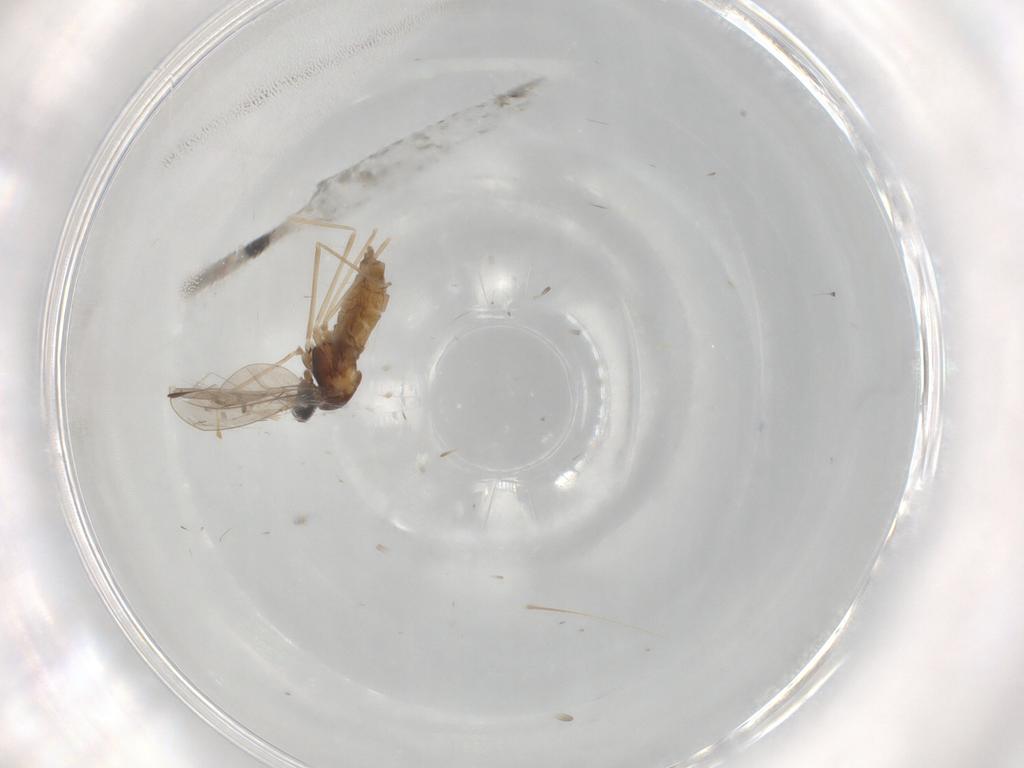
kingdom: Animalia
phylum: Arthropoda
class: Insecta
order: Diptera
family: Cecidomyiidae
